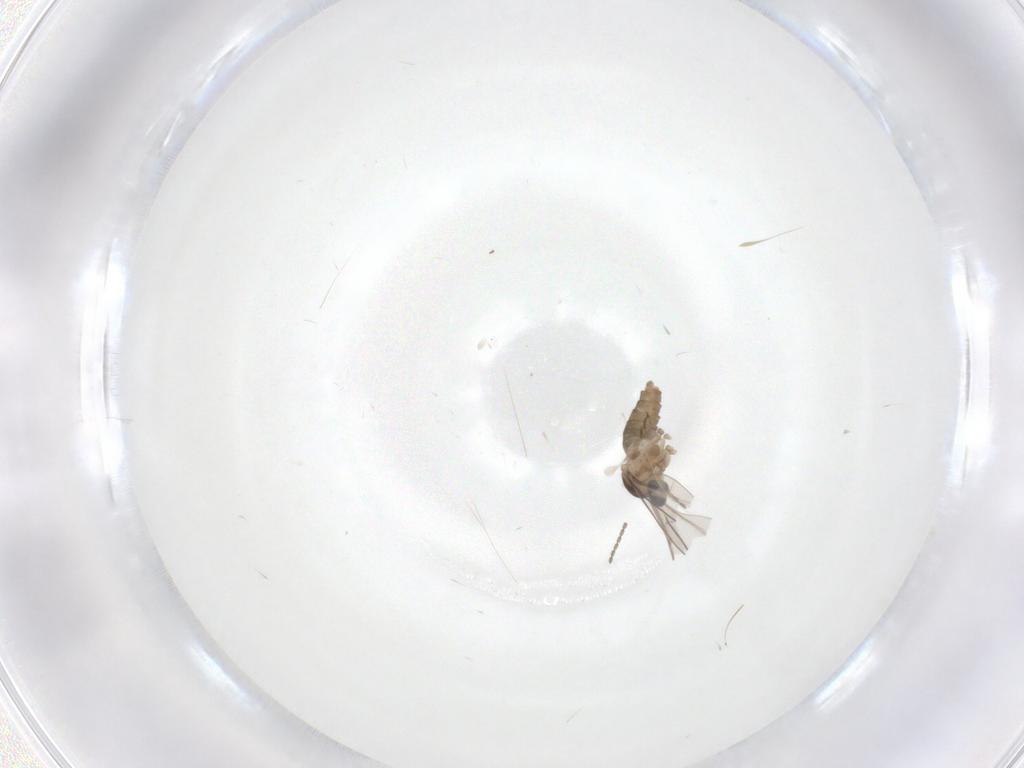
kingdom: Animalia
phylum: Arthropoda
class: Insecta
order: Diptera
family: Cecidomyiidae
